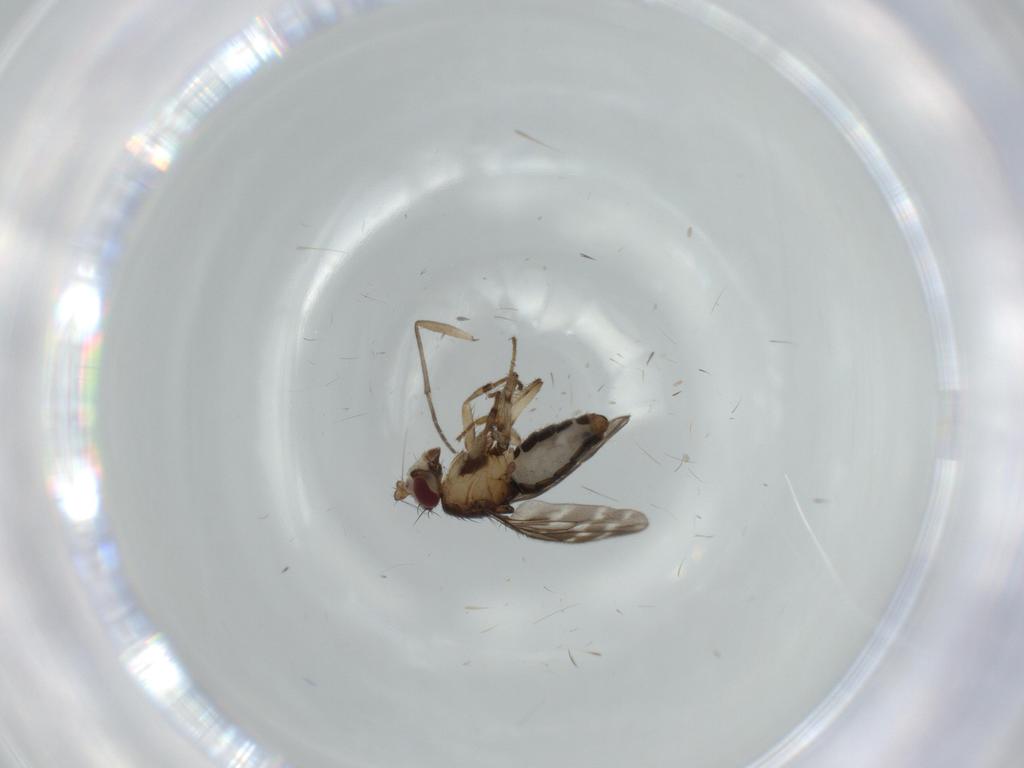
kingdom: Animalia
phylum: Arthropoda
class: Insecta
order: Diptera
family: Sphaeroceridae
